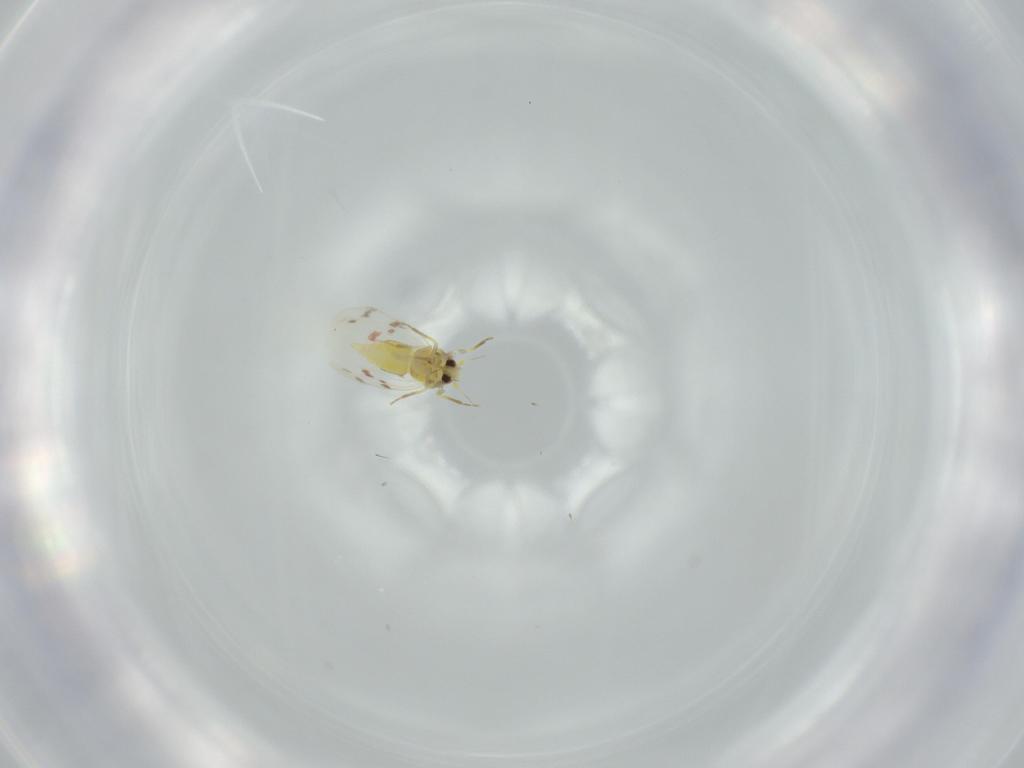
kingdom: Animalia
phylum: Arthropoda
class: Insecta
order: Hemiptera
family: Aleyrodidae
